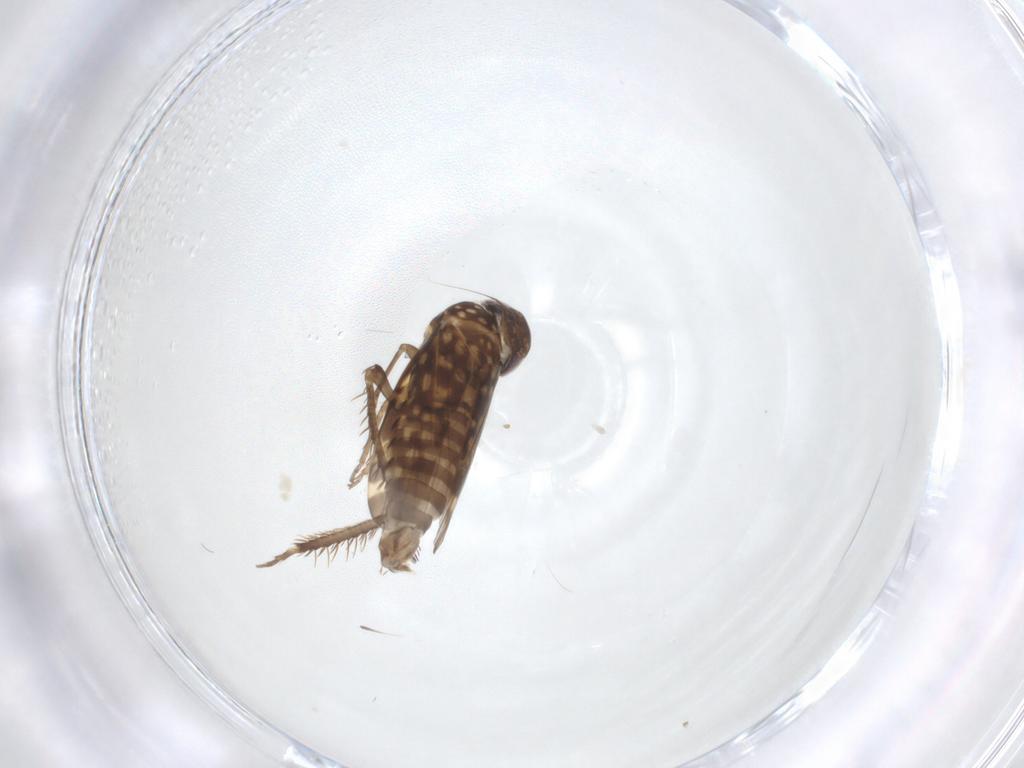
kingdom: Animalia
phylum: Arthropoda
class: Insecta
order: Hemiptera
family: Cicadellidae
